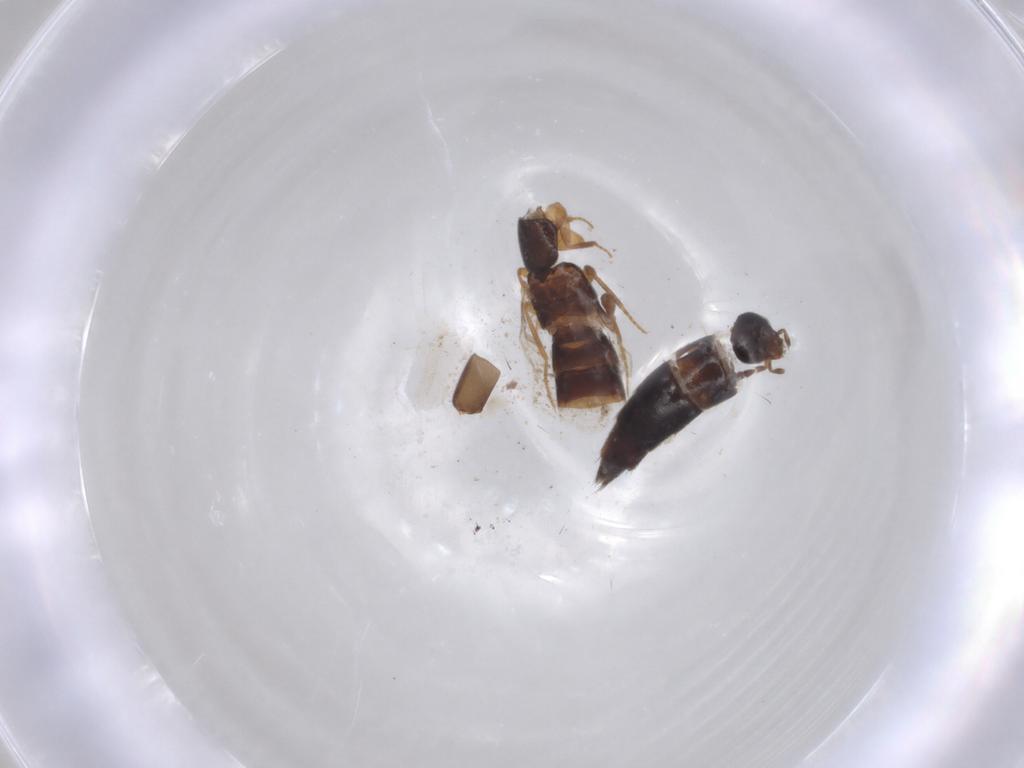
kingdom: Animalia
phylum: Arthropoda
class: Insecta
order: Coleoptera
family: Staphylinidae
